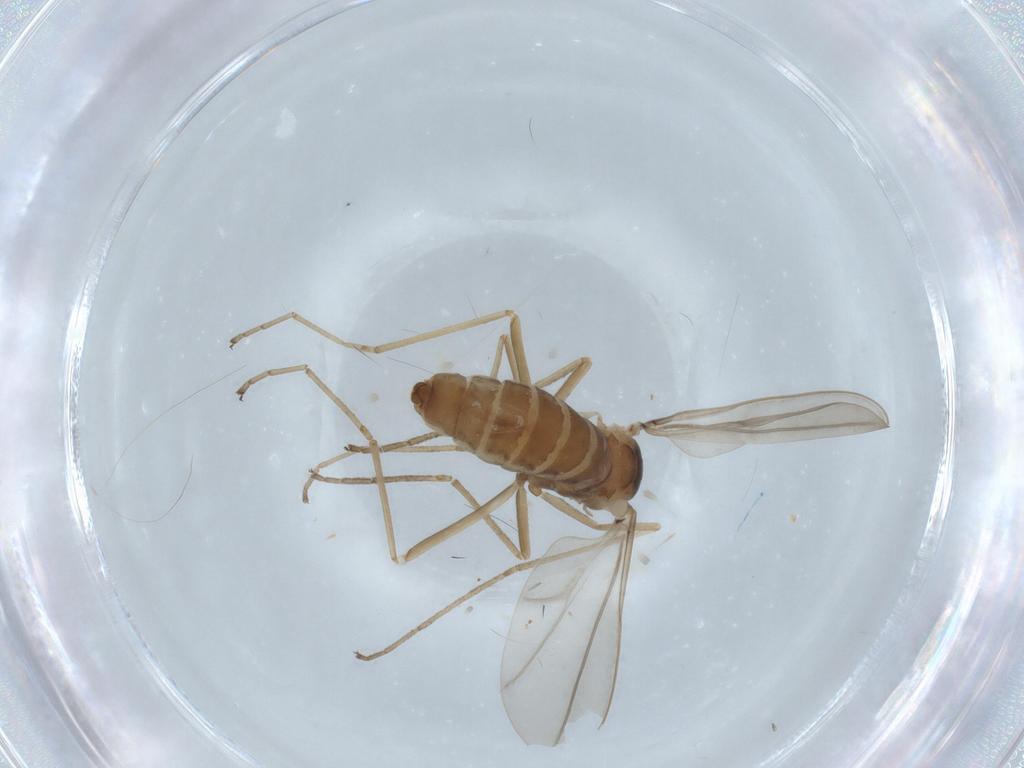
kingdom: Animalia
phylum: Arthropoda
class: Insecta
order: Diptera
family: Cecidomyiidae
